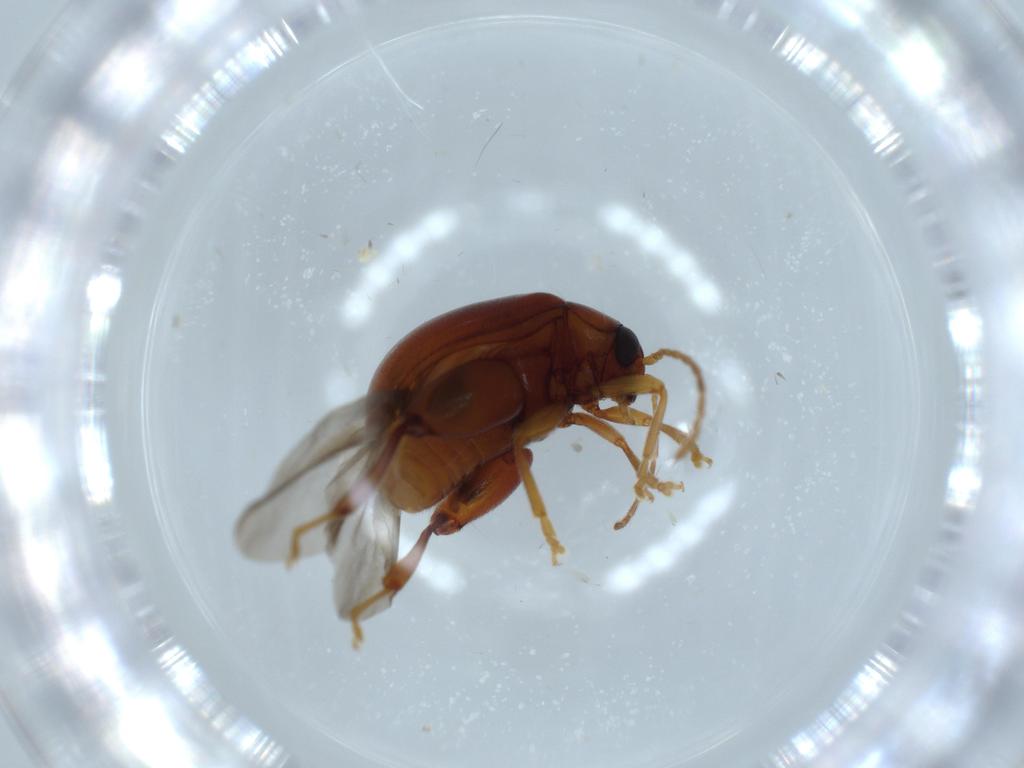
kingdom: Animalia
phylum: Arthropoda
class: Insecta
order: Coleoptera
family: Chrysomelidae
